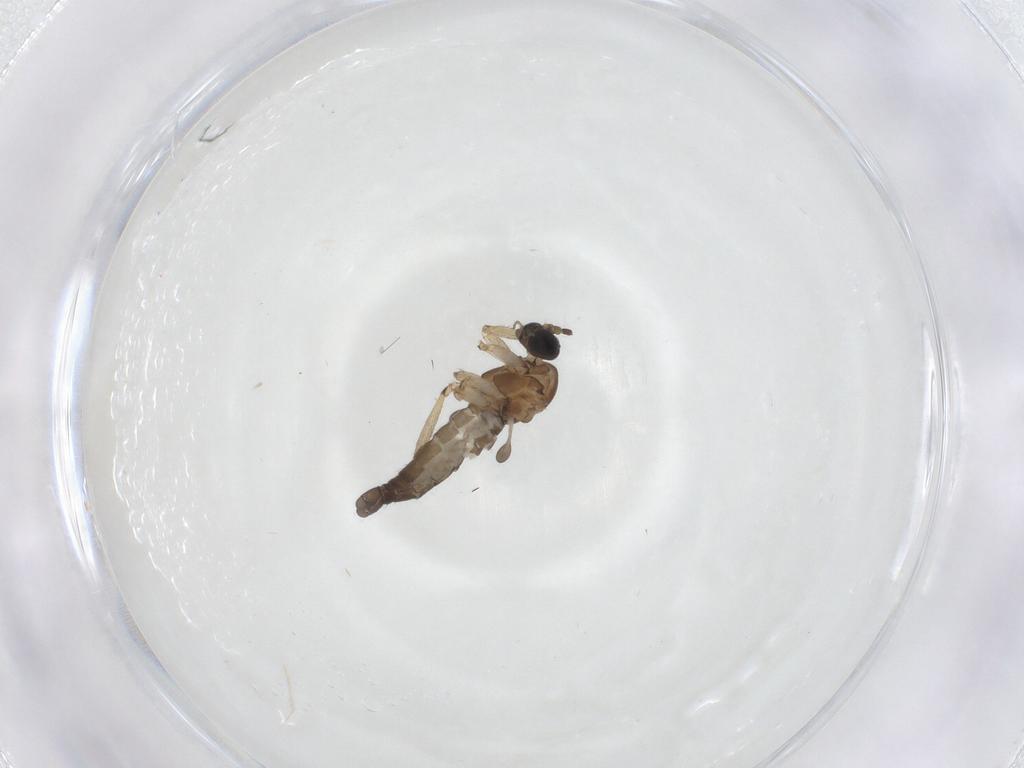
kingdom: Animalia
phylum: Arthropoda
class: Insecta
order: Diptera
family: Sciaridae
